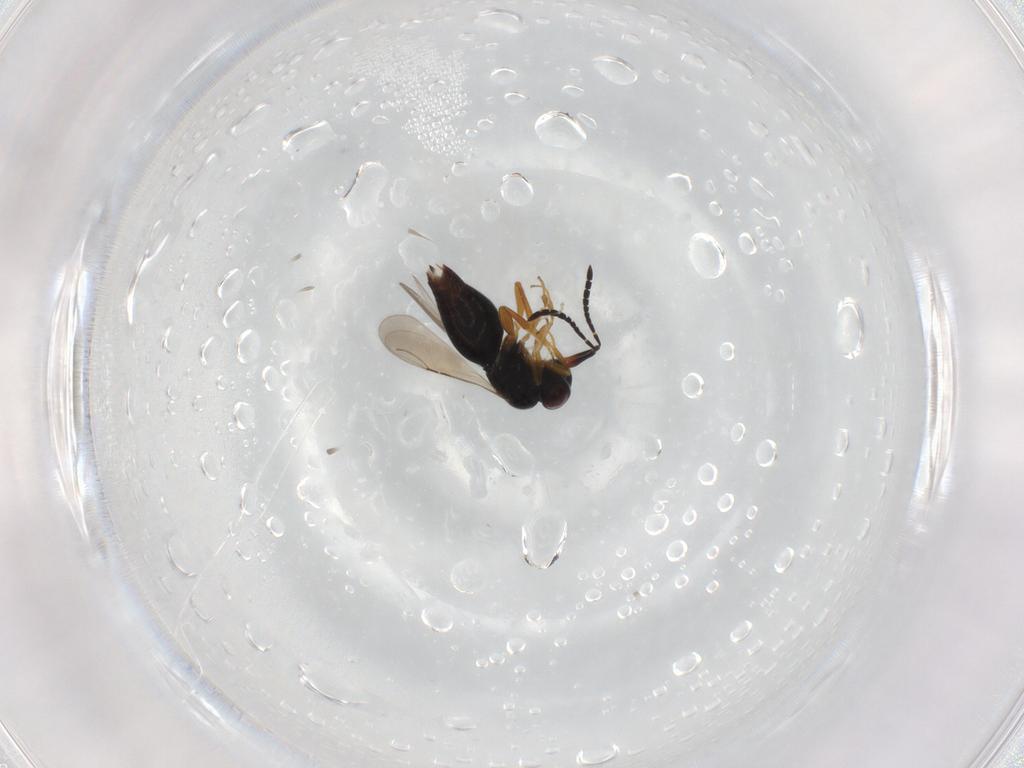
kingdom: Animalia
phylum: Arthropoda
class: Insecta
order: Hymenoptera
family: Ceraphronidae
